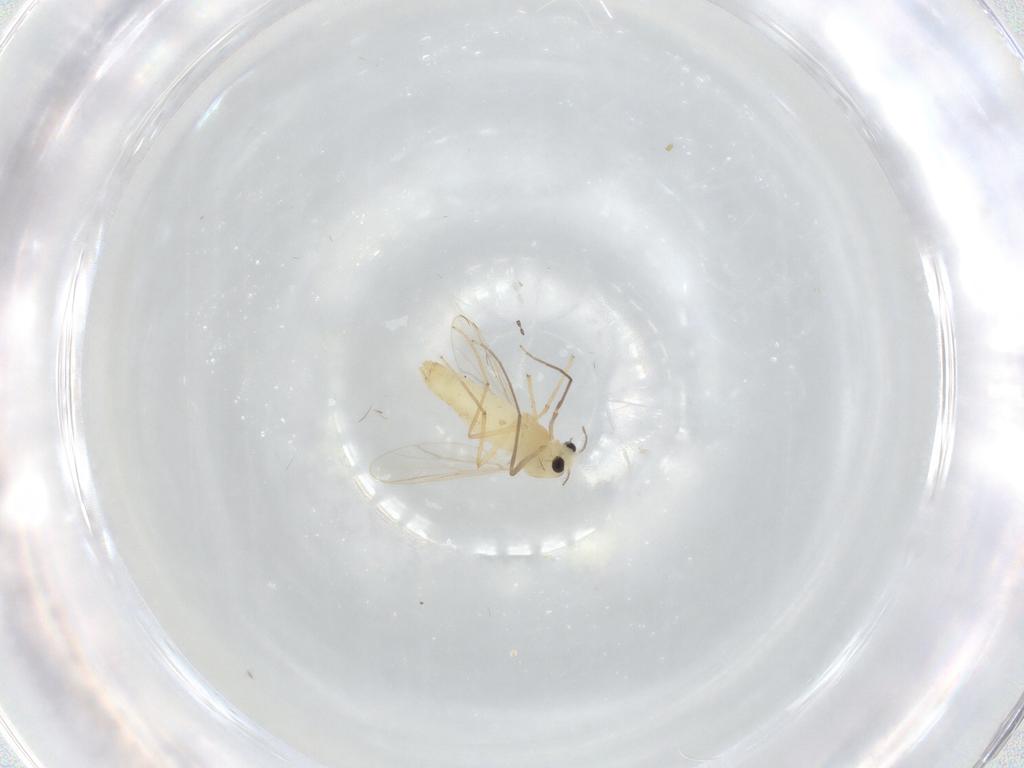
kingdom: Animalia
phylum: Arthropoda
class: Insecta
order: Diptera
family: Chironomidae
